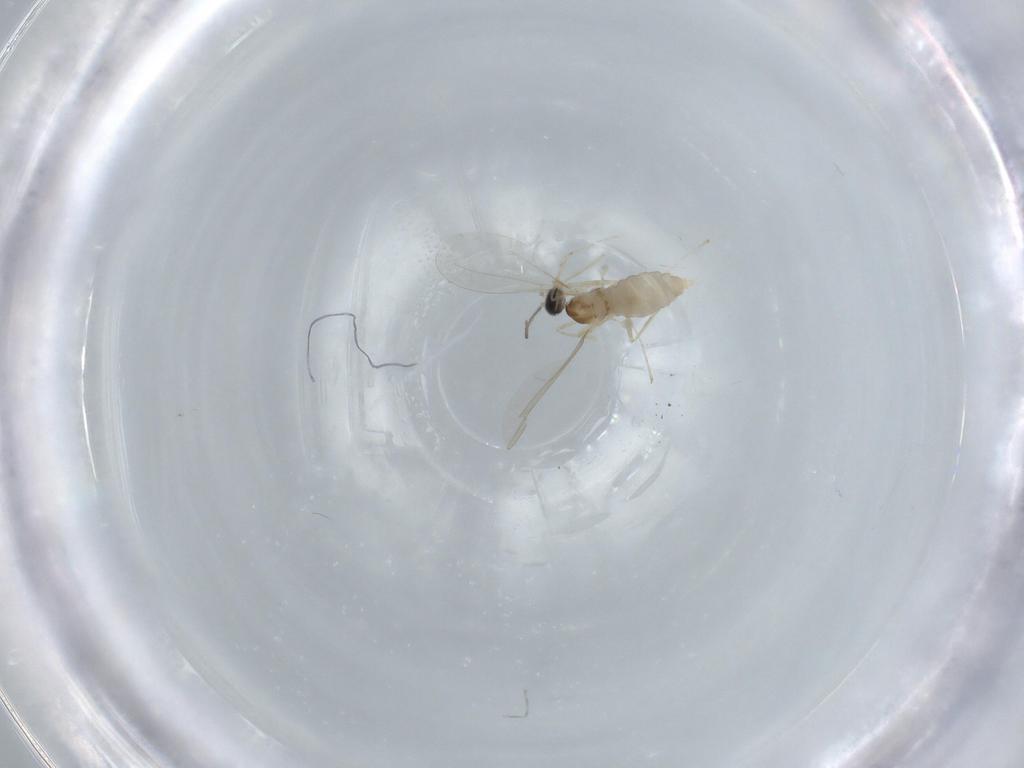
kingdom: Animalia
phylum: Arthropoda
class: Insecta
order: Diptera
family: Cecidomyiidae
